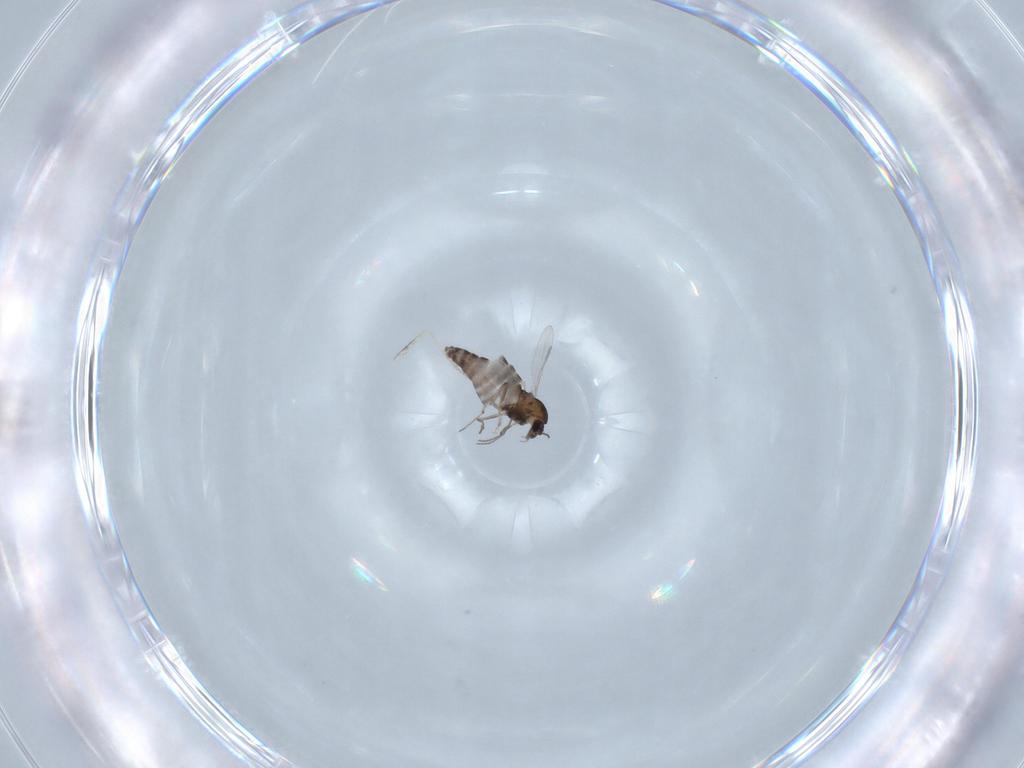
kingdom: Animalia
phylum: Arthropoda
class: Insecta
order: Diptera
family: Chironomidae
